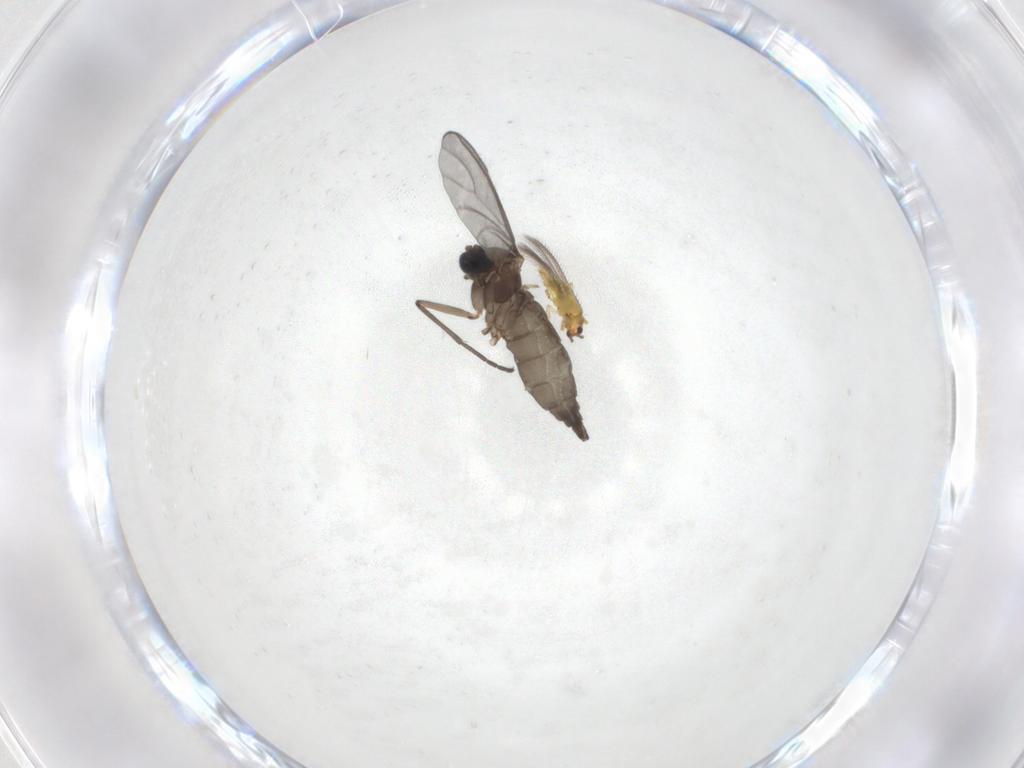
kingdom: Animalia
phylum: Arthropoda
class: Insecta
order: Diptera
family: Sciaridae
